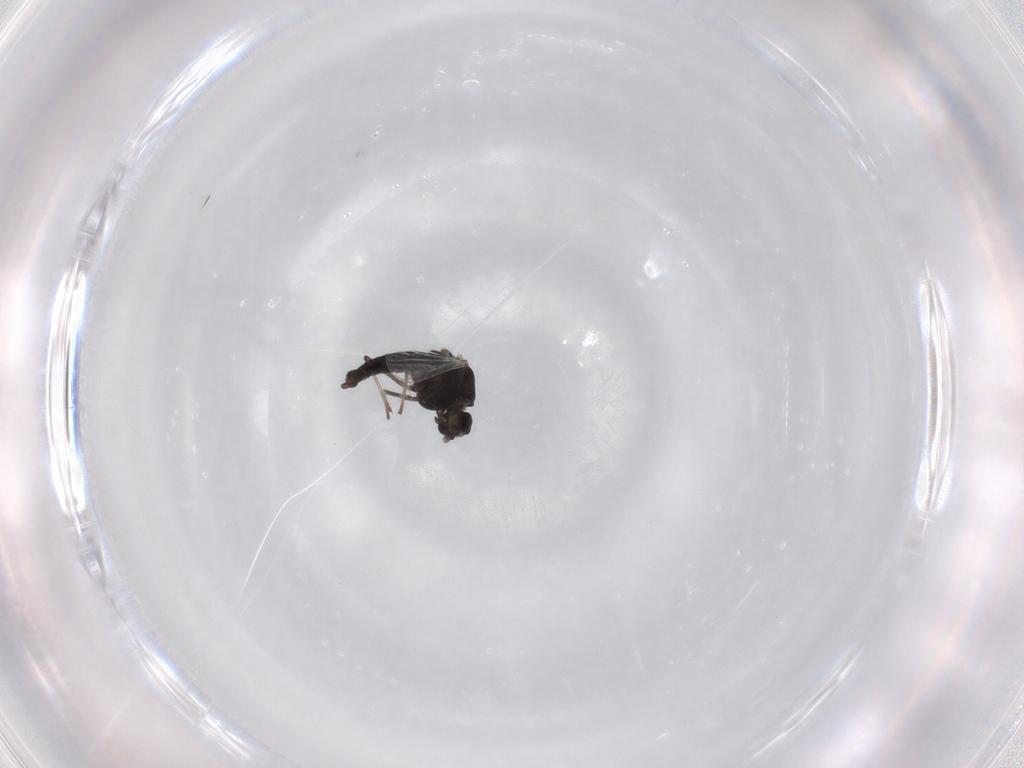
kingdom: Animalia
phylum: Arthropoda
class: Insecta
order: Diptera
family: Chironomidae
